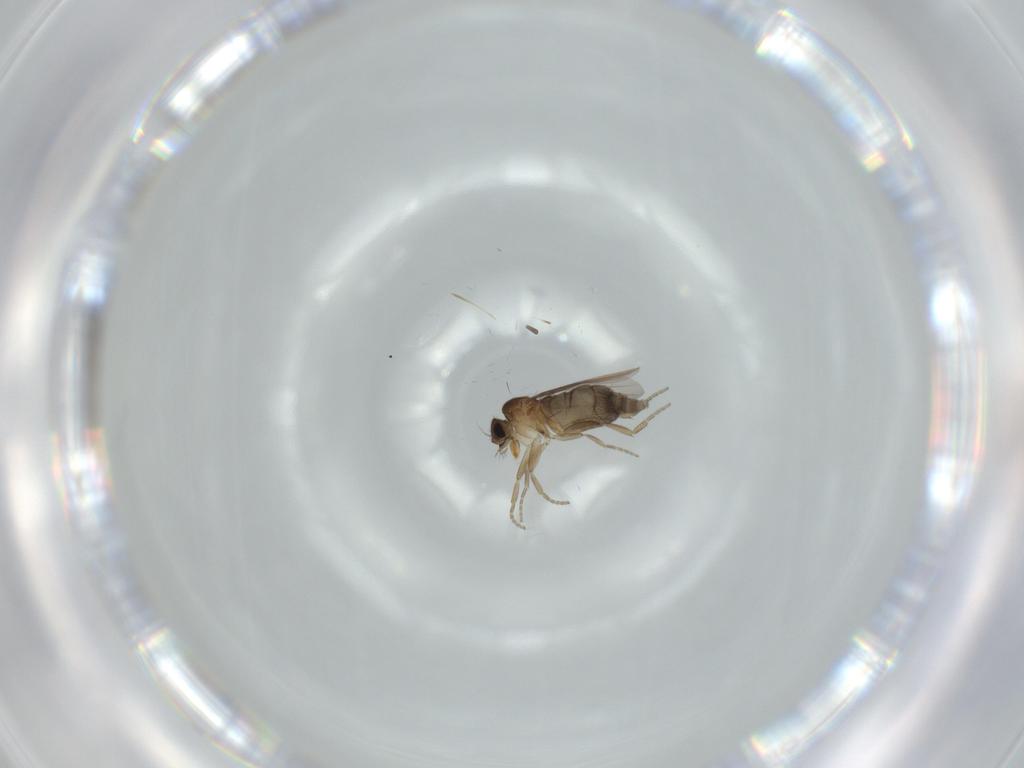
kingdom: Animalia
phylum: Arthropoda
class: Insecta
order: Diptera
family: Phoridae
